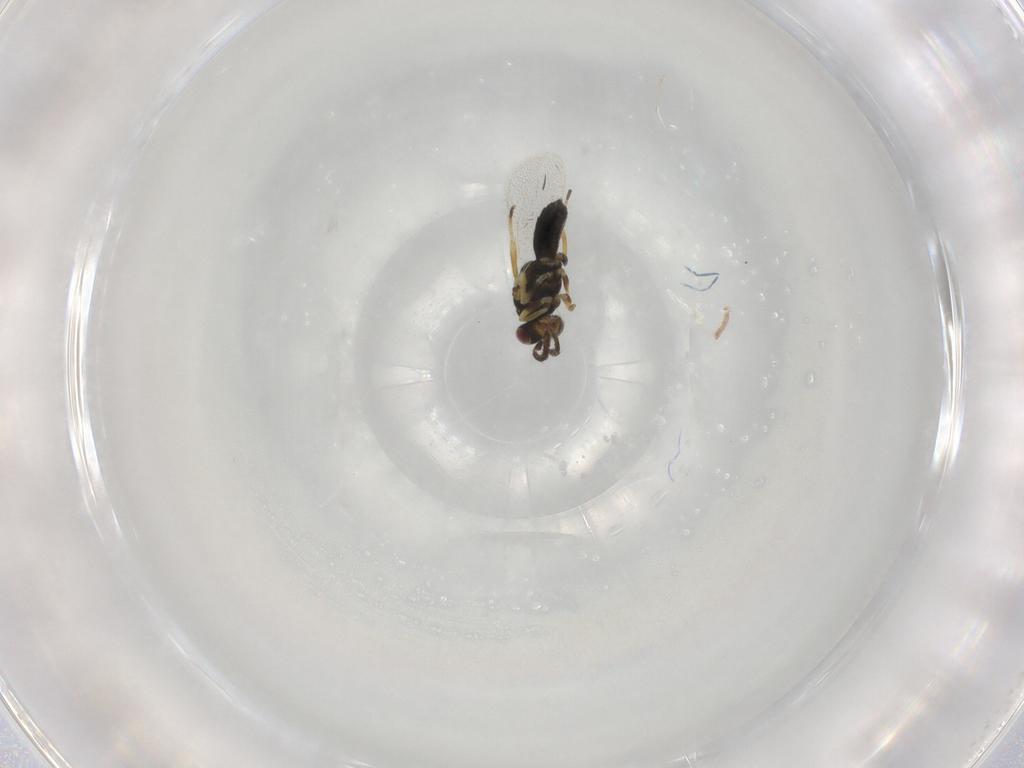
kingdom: Animalia
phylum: Arthropoda
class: Insecta
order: Hymenoptera
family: Eulophidae
